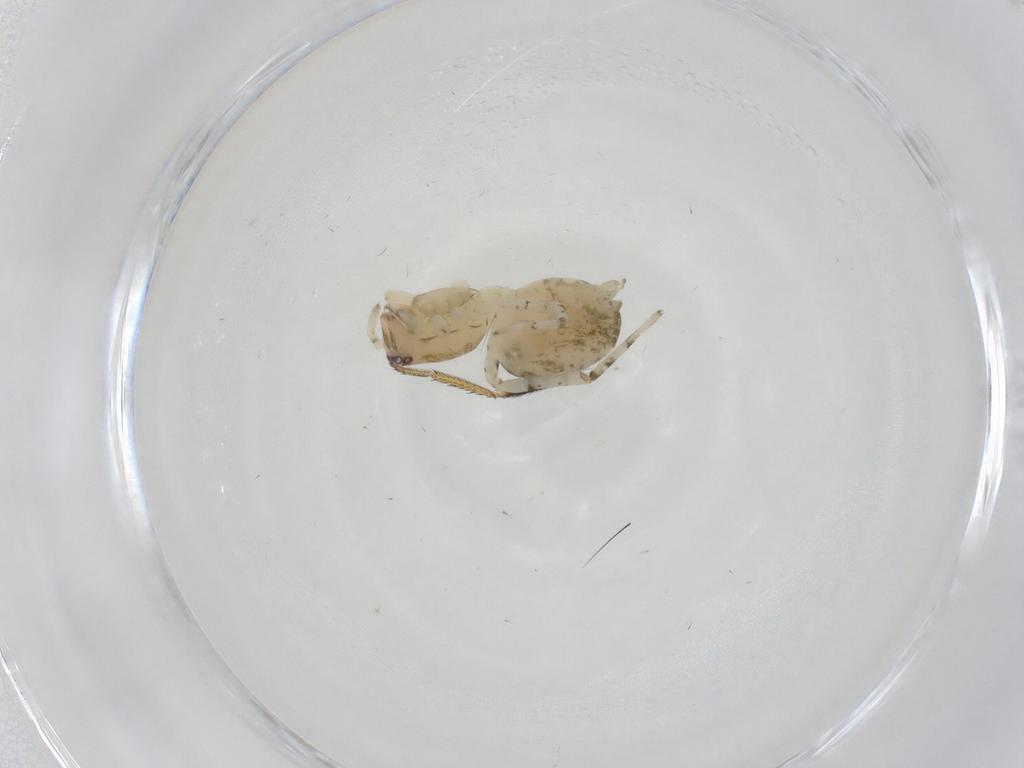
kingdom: Animalia
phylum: Arthropoda
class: Arachnida
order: Araneae
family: Anyphaenidae
